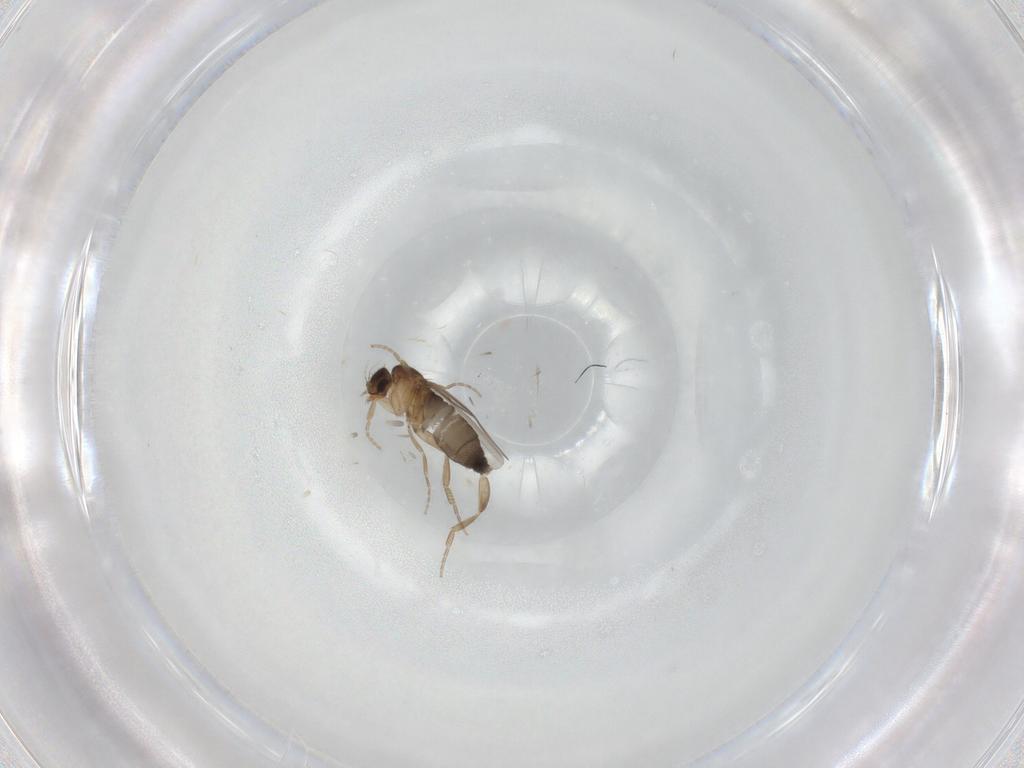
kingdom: Animalia
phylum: Arthropoda
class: Insecta
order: Diptera
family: Phoridae
